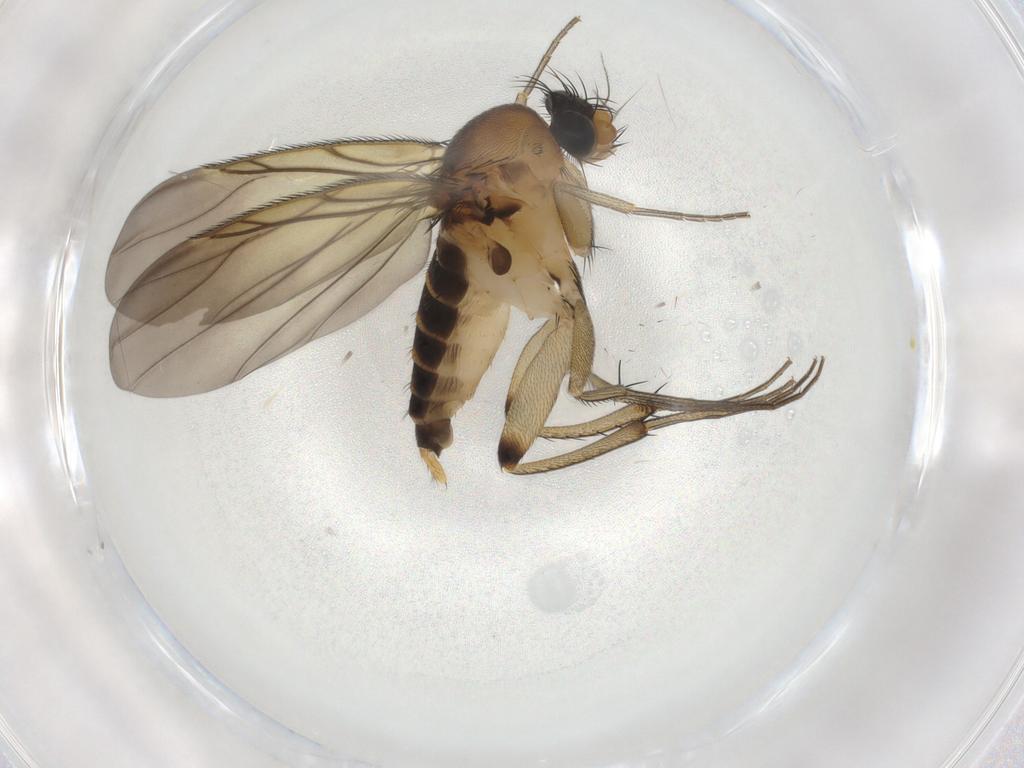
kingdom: Animalia
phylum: Arthropoda
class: Insecta
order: Diptera
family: Phoridae
